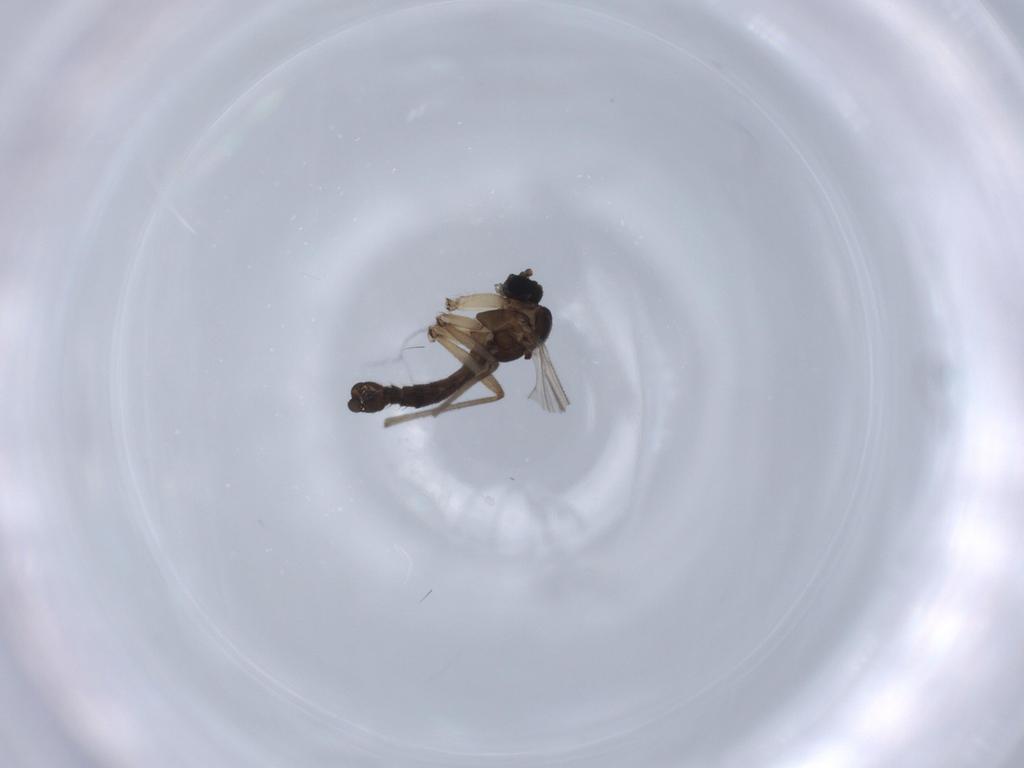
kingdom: Animalia
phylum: Arthropoda
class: Insecta
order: Diptera
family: Sciaridae
